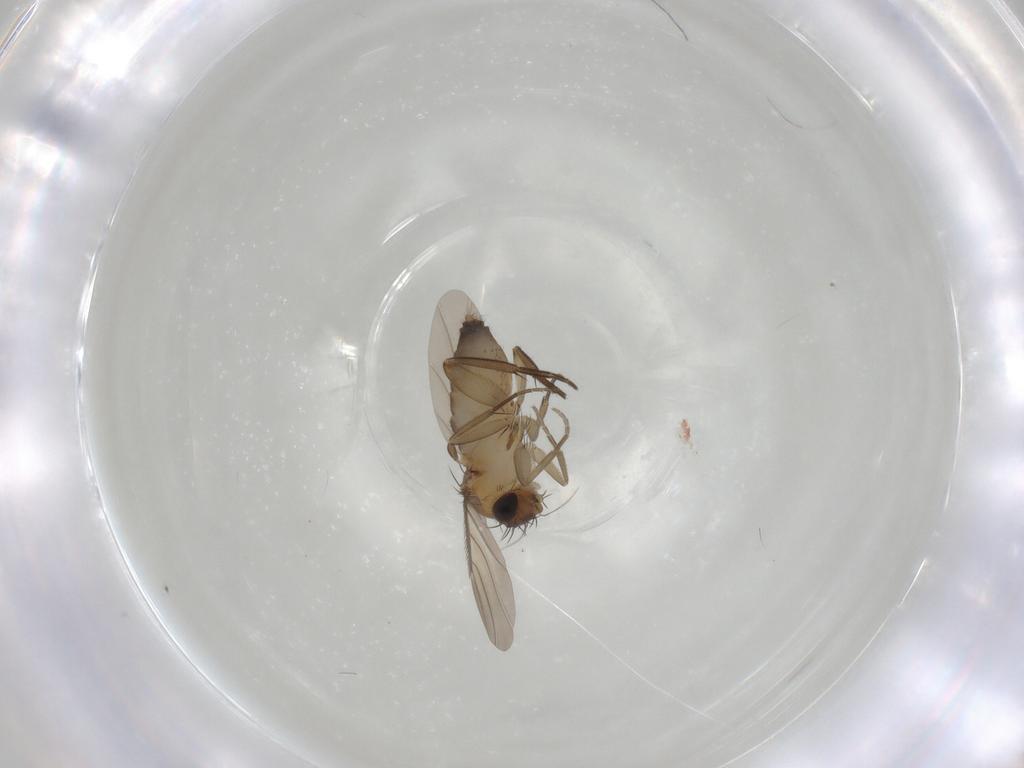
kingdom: Animalia
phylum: Arthropoda
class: Insecta
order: Diptera
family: Phoridae
